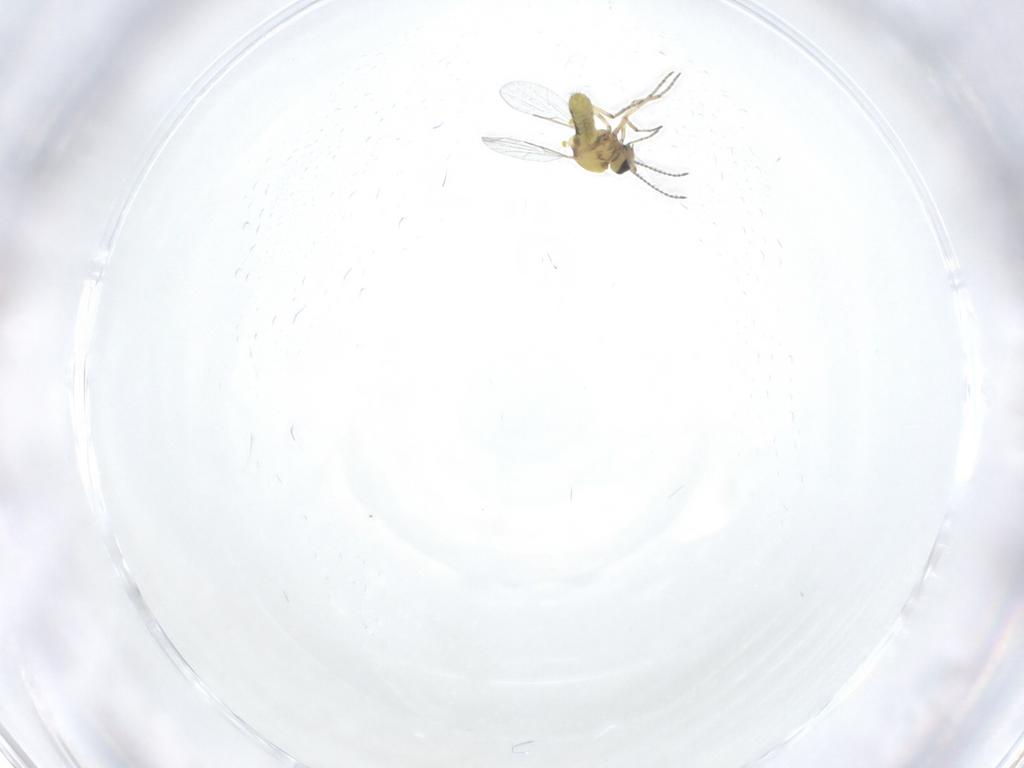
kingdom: Animalia
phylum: Arthropoda
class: Insecta
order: Diptera
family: Ceratopogonidae
